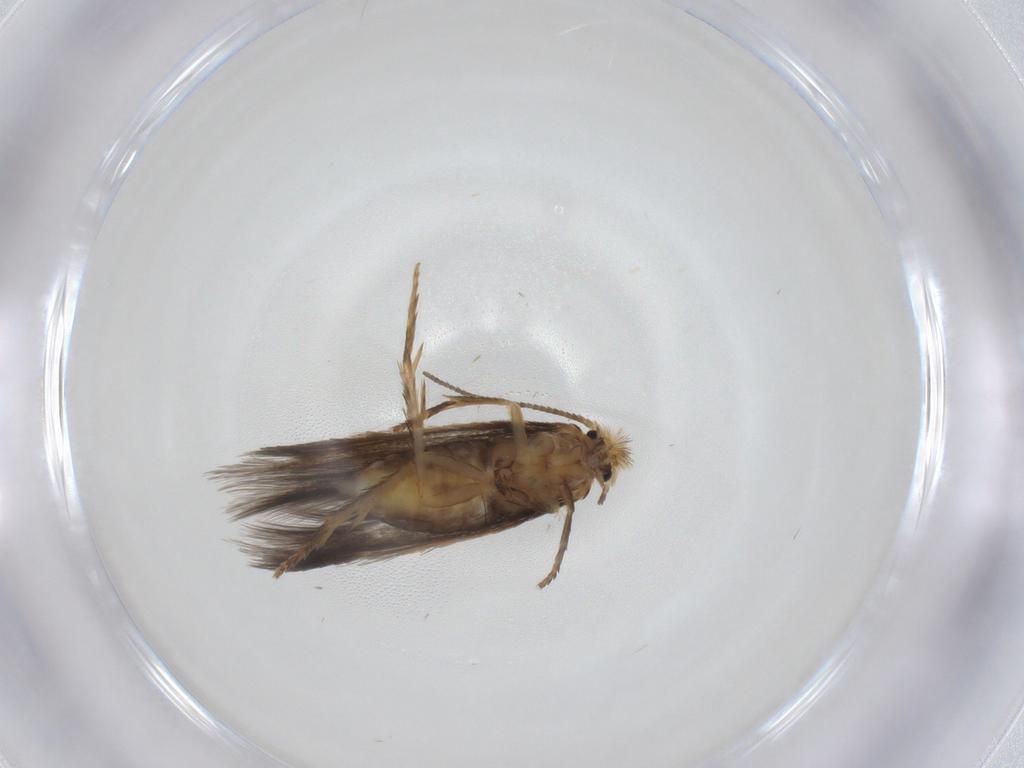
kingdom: Animalia
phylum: Arthropoda
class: Insecta
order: Lepidoptera
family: Nepticulidae
